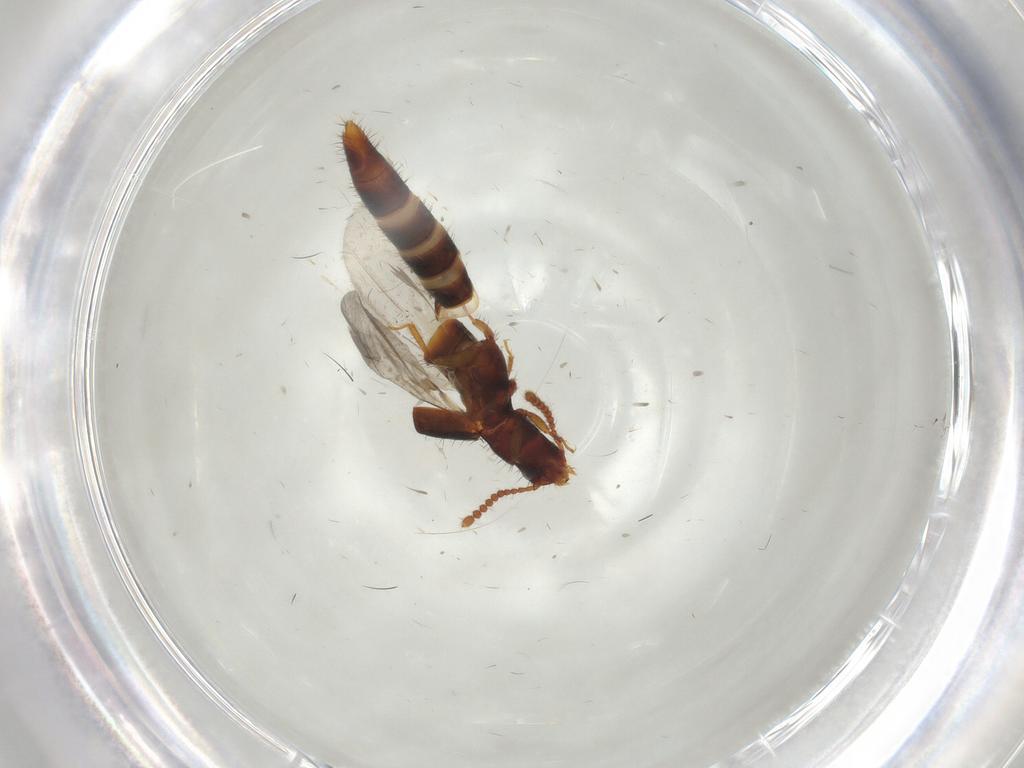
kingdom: Animalia
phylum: Arthropoda
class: Insecta
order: Coleoptera
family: Staphylinidae
